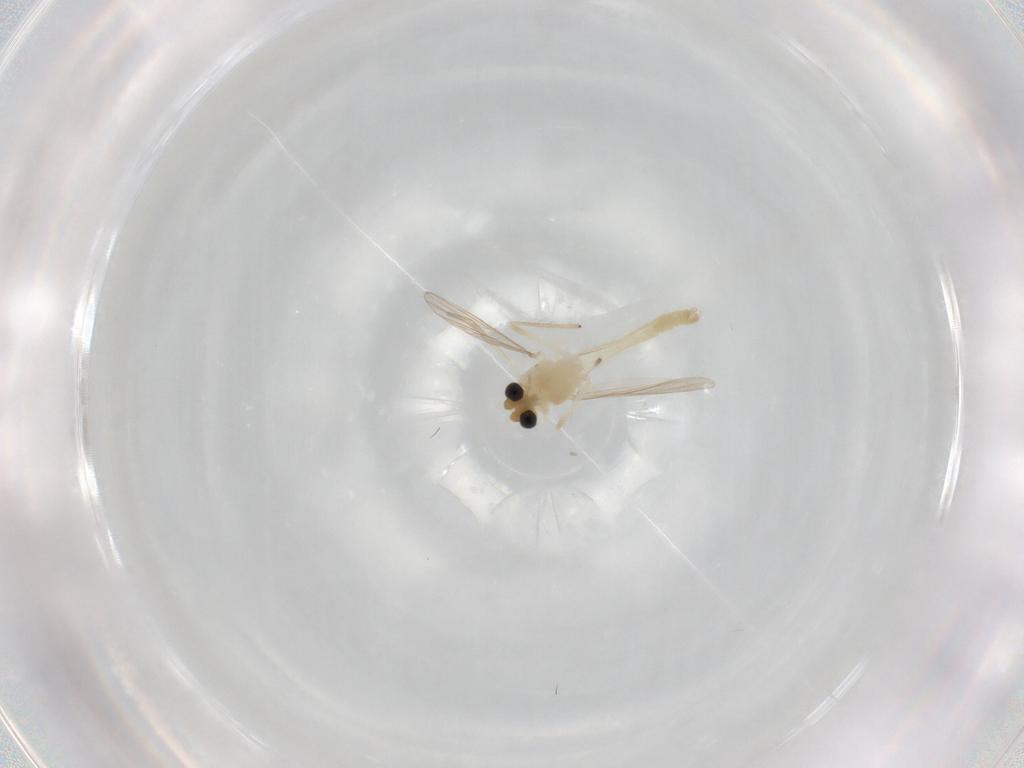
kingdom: Animalia
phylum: Arthropoda
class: Insecta
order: Diptera
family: Chironomidae
